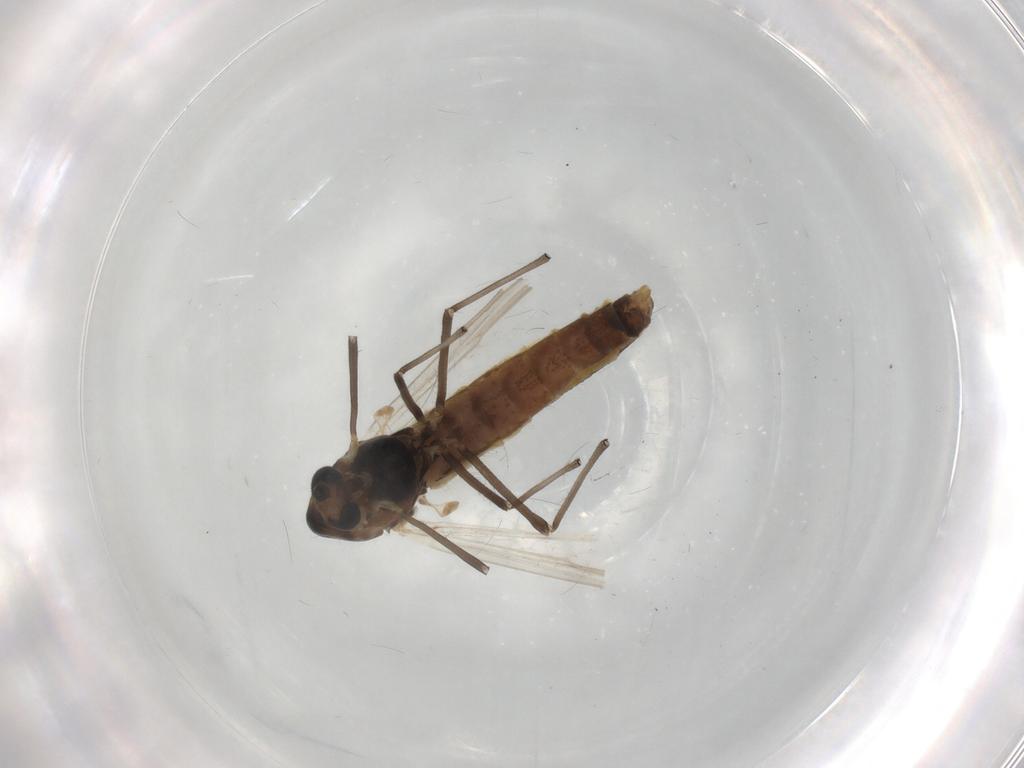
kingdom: Animalia
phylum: Arthropoda
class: Insecta
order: Diptera
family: Chironomidae
